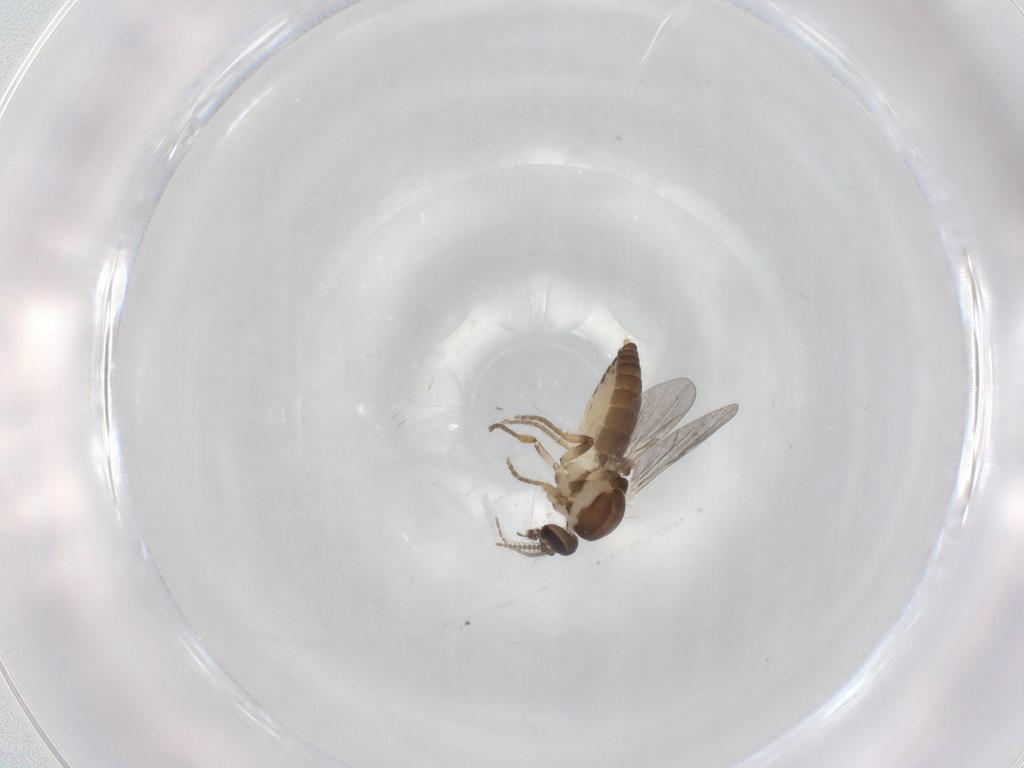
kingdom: Animalia
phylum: Arthropoda
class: Insecta
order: Diptera
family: Ceratopogonidae
